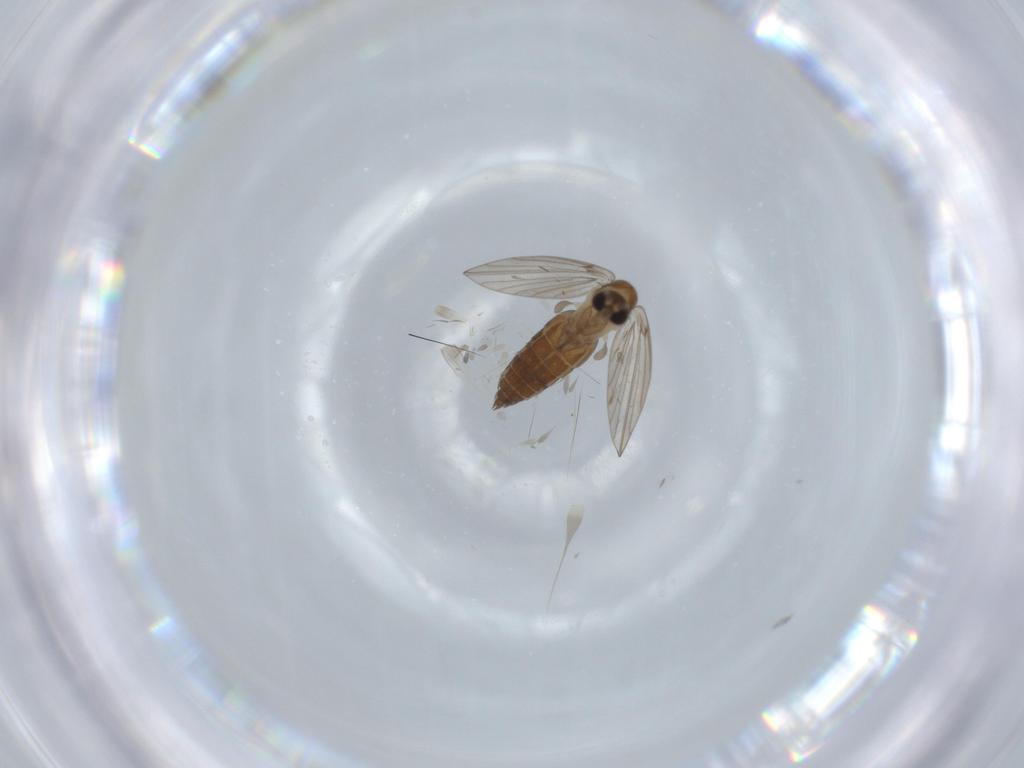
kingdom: Animalia
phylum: Arthropoda
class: Insecta
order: Diptera
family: Psychodidae
